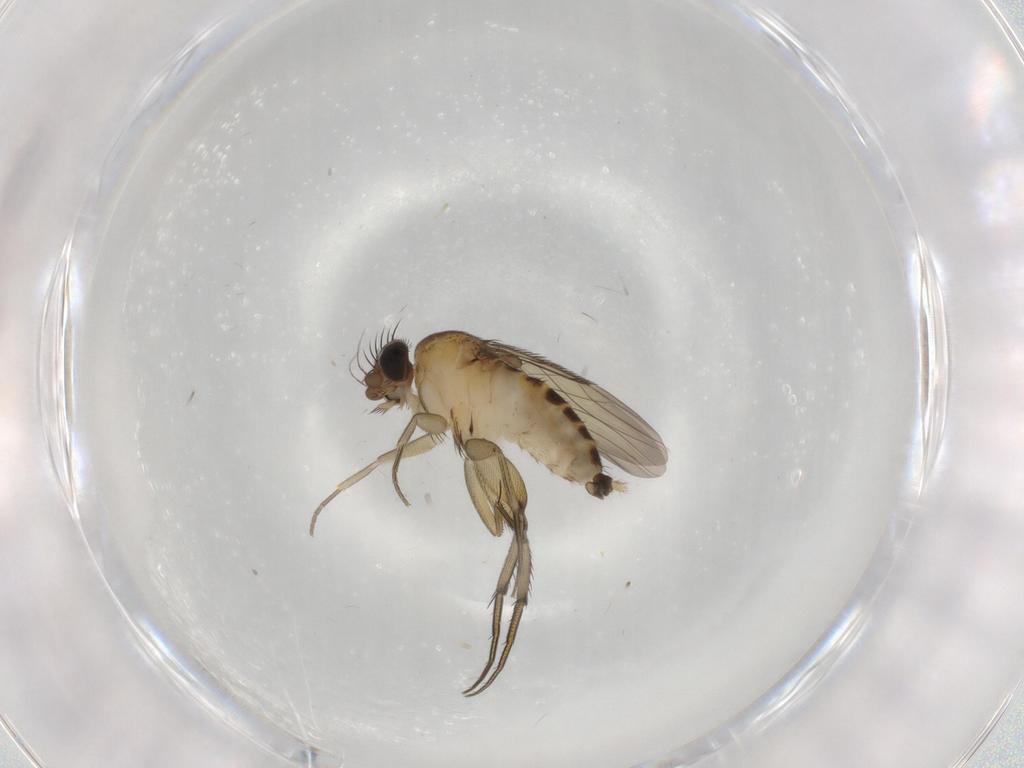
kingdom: Animalia
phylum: Arthropoda
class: Insecta
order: Diptera
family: Phoridae
